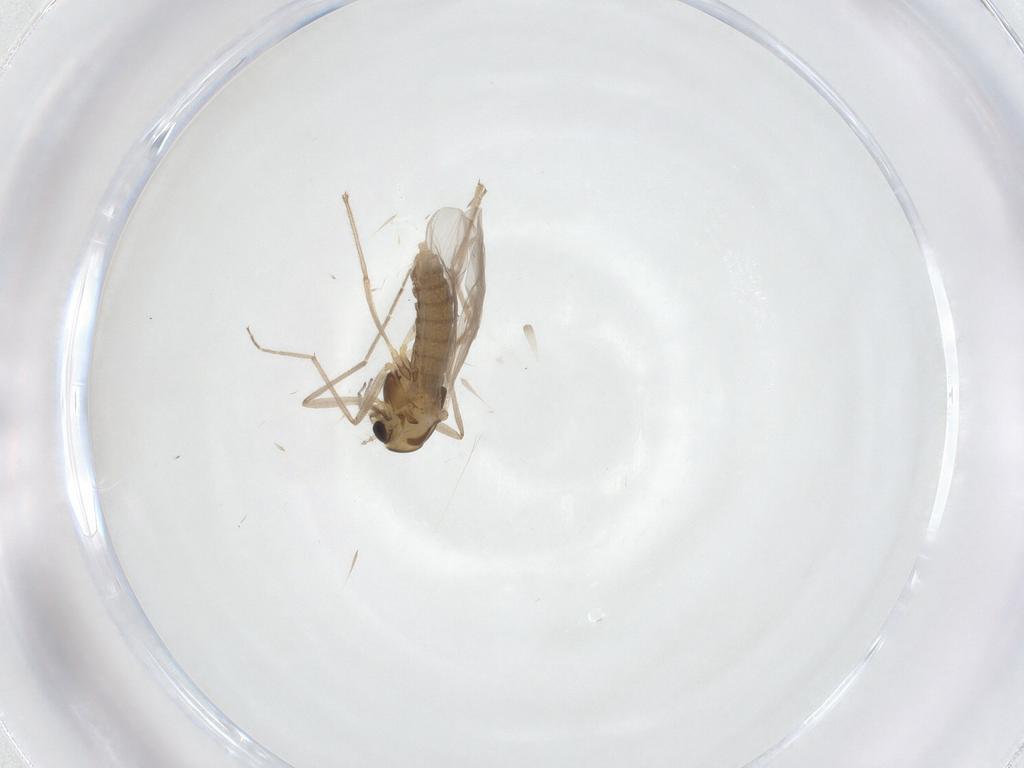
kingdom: Animalia
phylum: Arthropoda
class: Insecta
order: Diptera
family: Chironomidae
